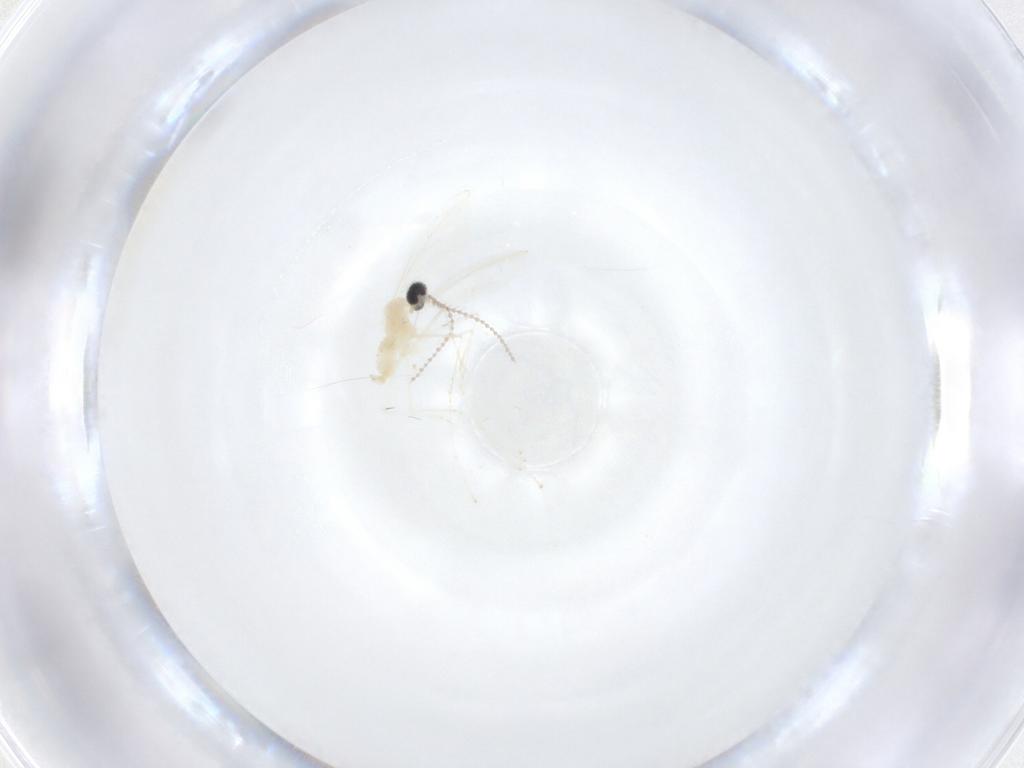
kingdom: Animalia
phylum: Arthropoda
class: Insecta
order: Diptera
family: Cecidomyiidae
